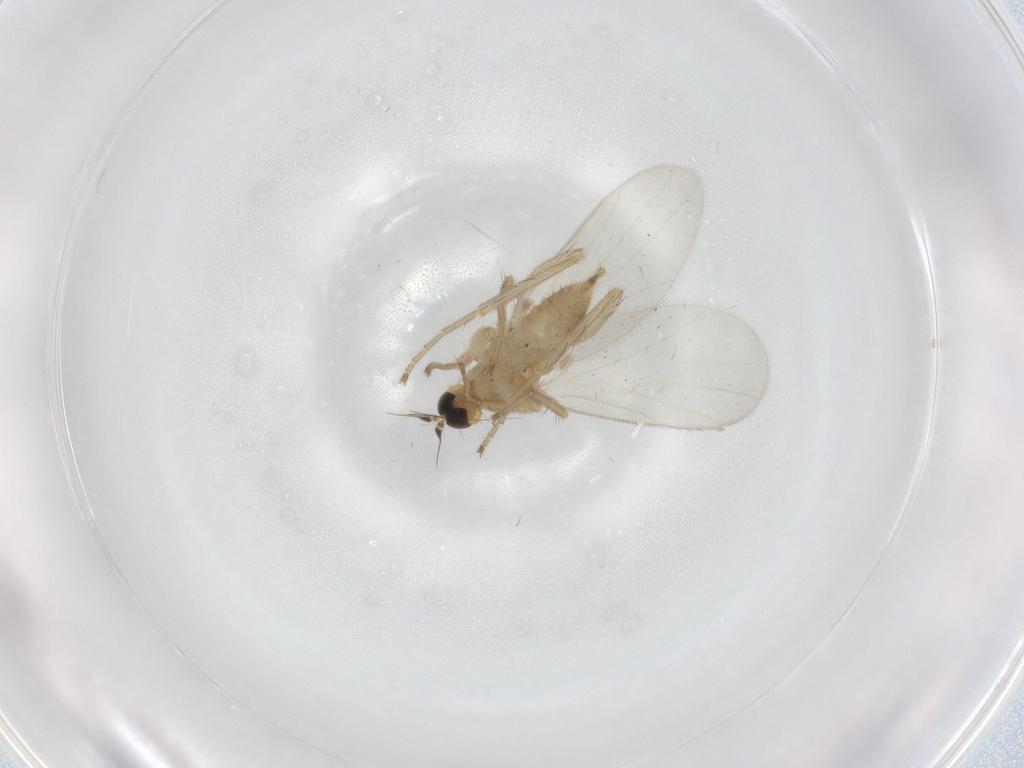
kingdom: Animalia
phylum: Arthropoda
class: Insecta
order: Diptera
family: Hybotidae
